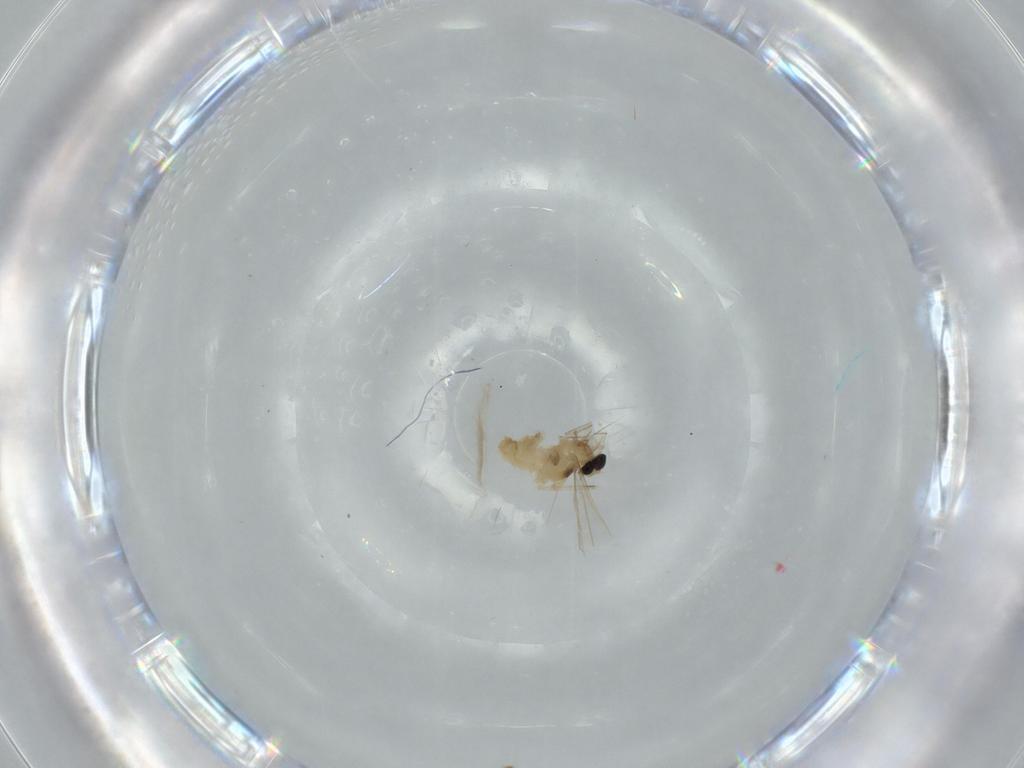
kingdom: Animalia
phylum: Arthropoda
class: Insecta
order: Diptera
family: Cecidomyiidae
